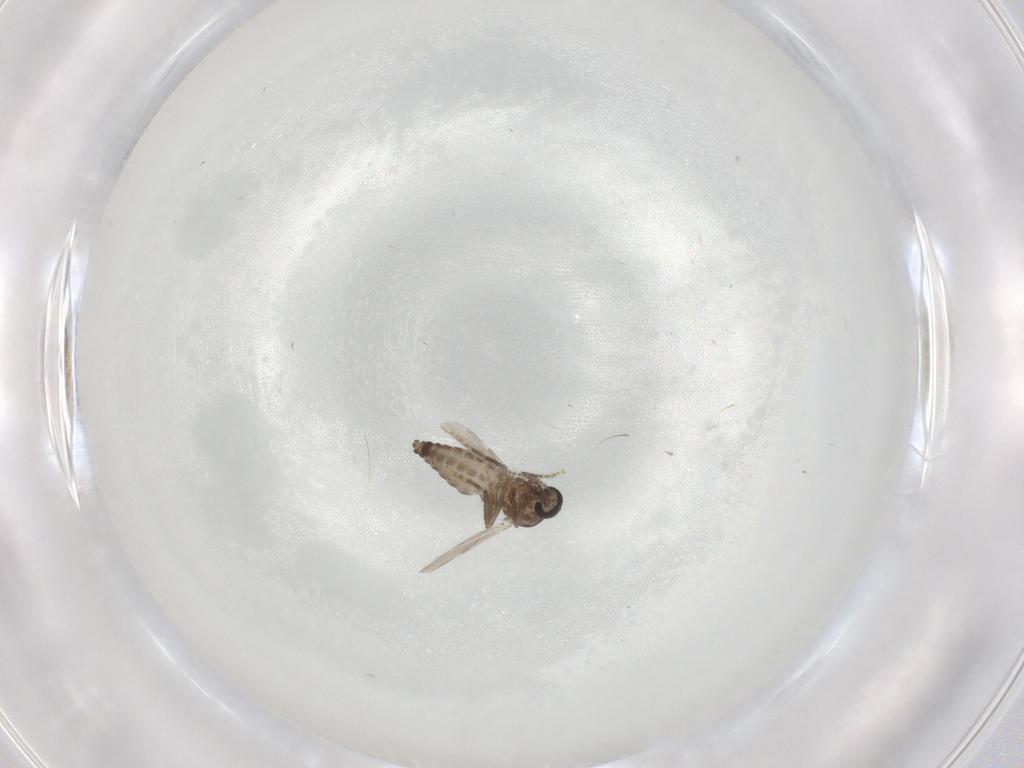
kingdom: Animalia
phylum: Arthropoda
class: Insecta
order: Diptera
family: Ceratopogonidae
